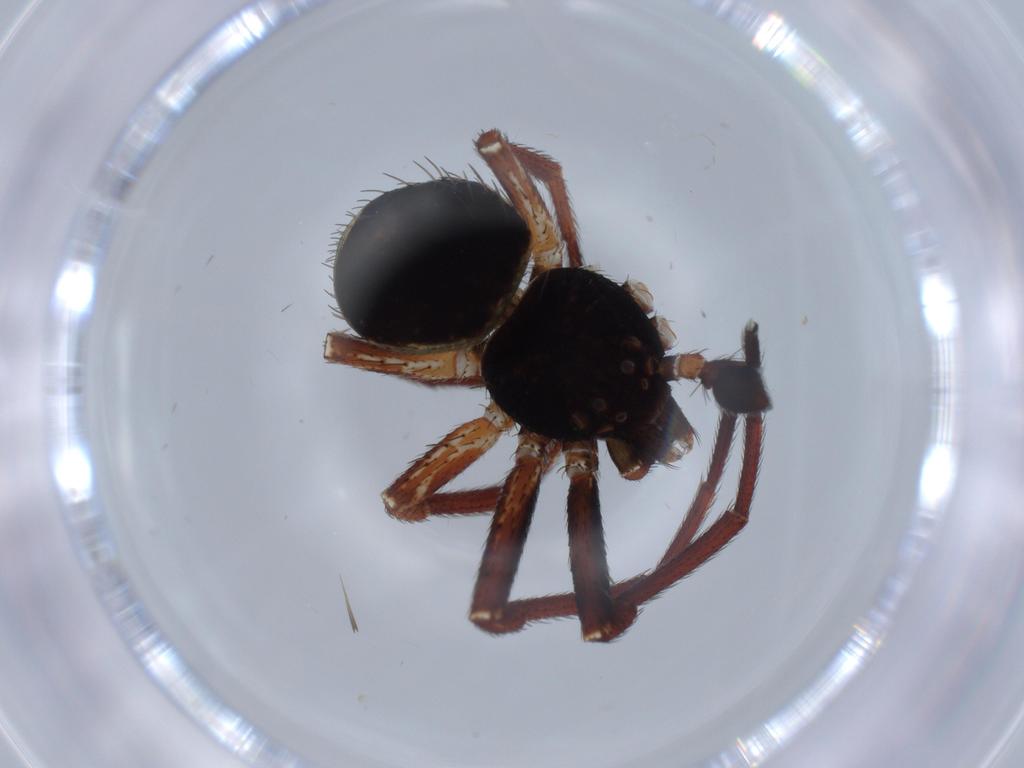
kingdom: Animalia
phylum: Arthropoda
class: Arachnida
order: Araneae
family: Thomisidae
